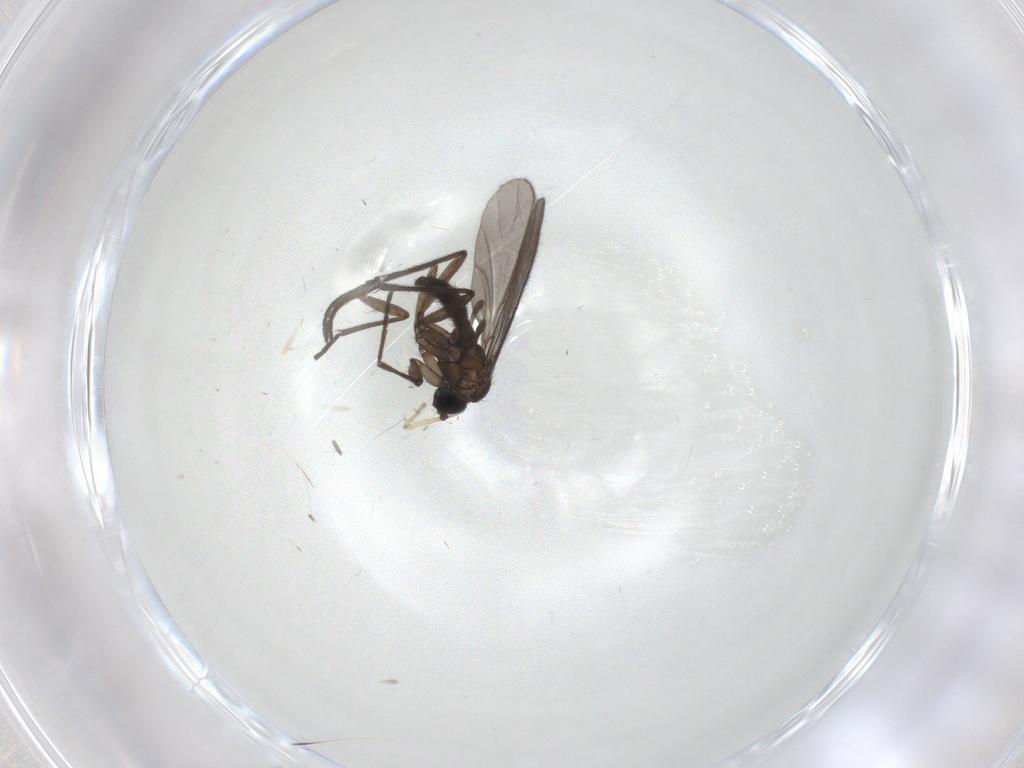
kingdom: Animalia
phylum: Arthropoda
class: Insecta
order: Diptera
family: Chironomidae
